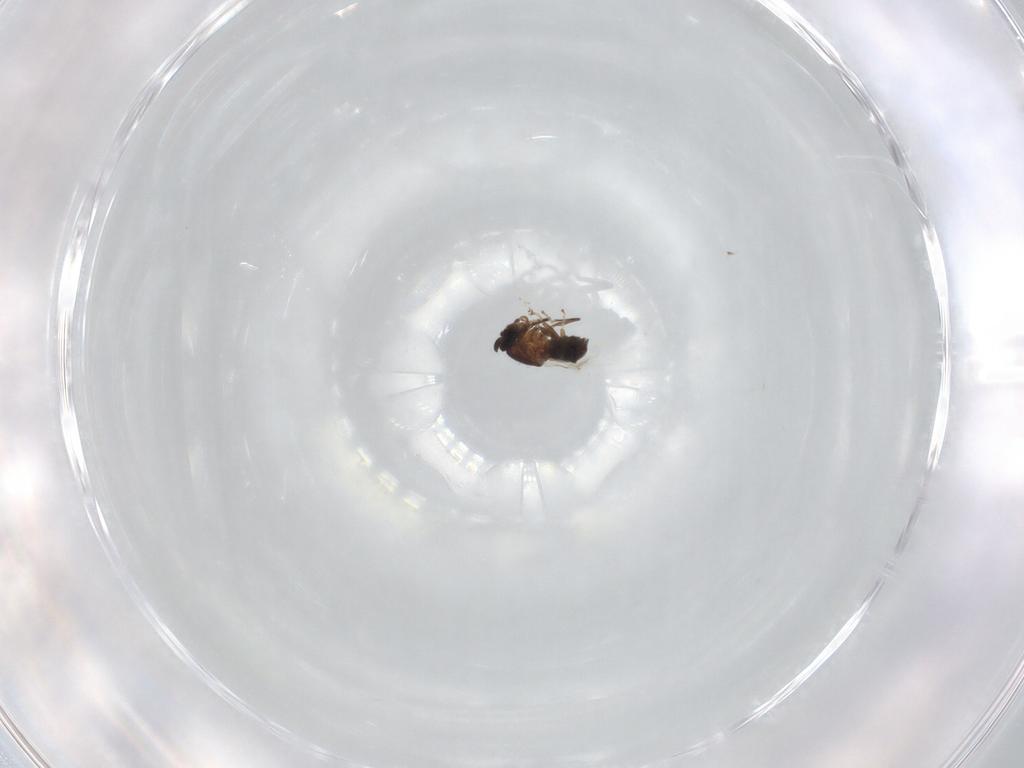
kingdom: Animalia
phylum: Arthropoda
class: Insecta
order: Diptera
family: Scatopsidae
